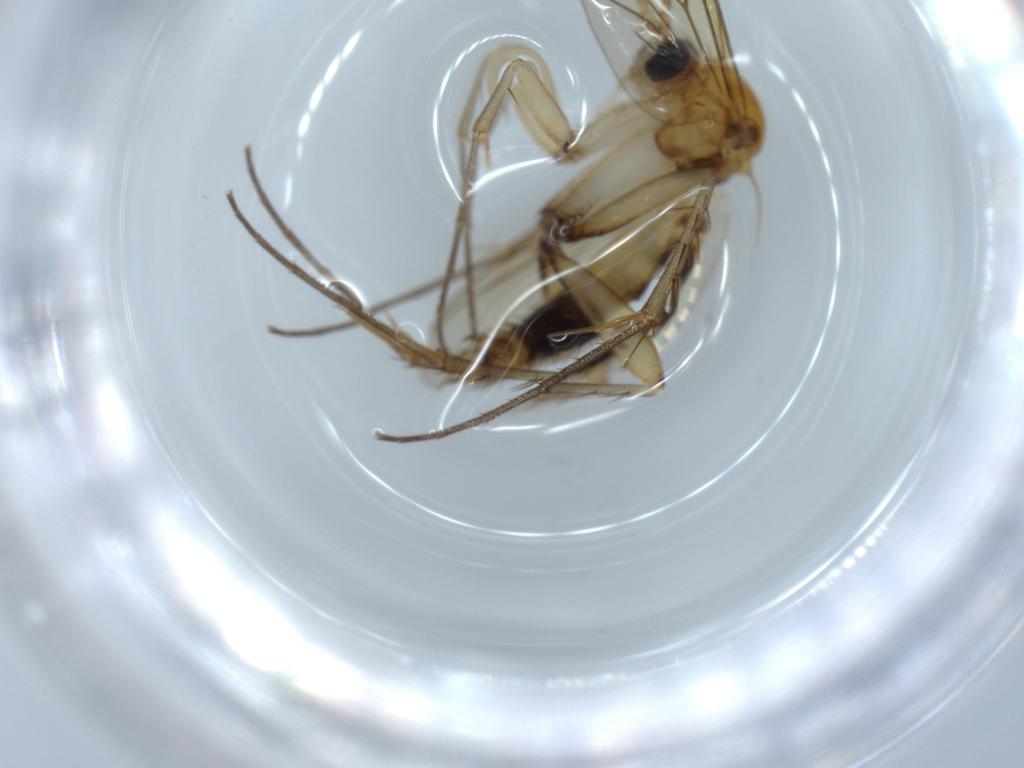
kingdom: Animalia
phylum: Arthropoda
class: Insecta
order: Diptera
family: Mycetophilidae
